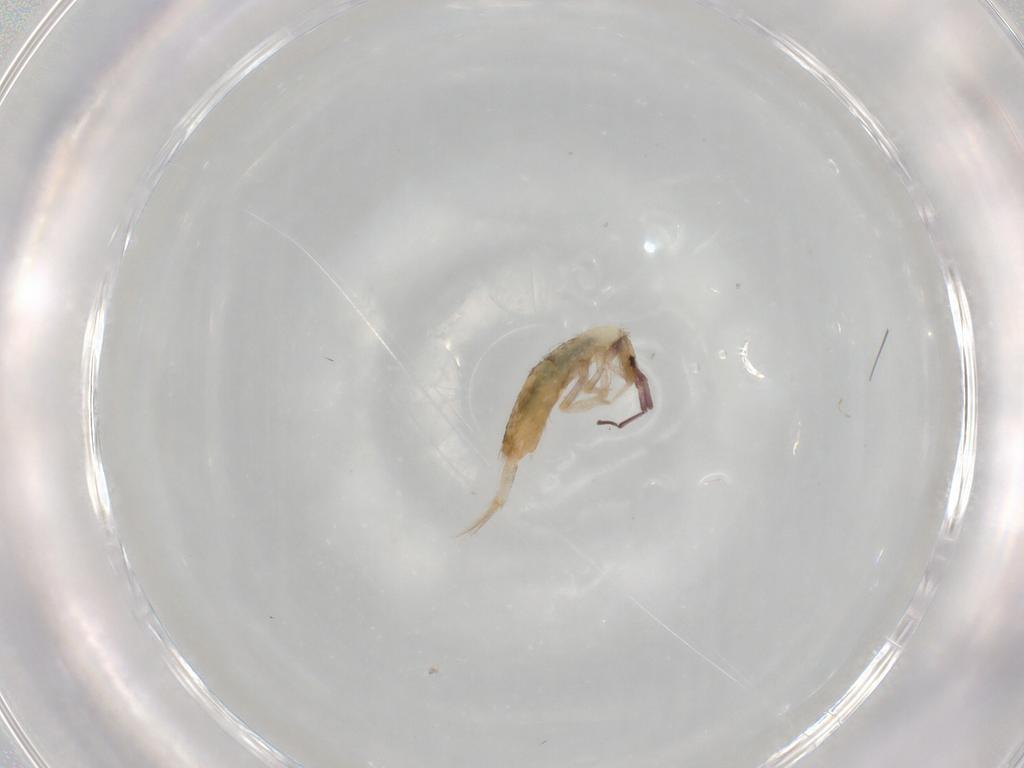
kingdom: Animalia
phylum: Arthropoda
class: Collembola
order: Entomobryomorpha
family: Entomobryidae
